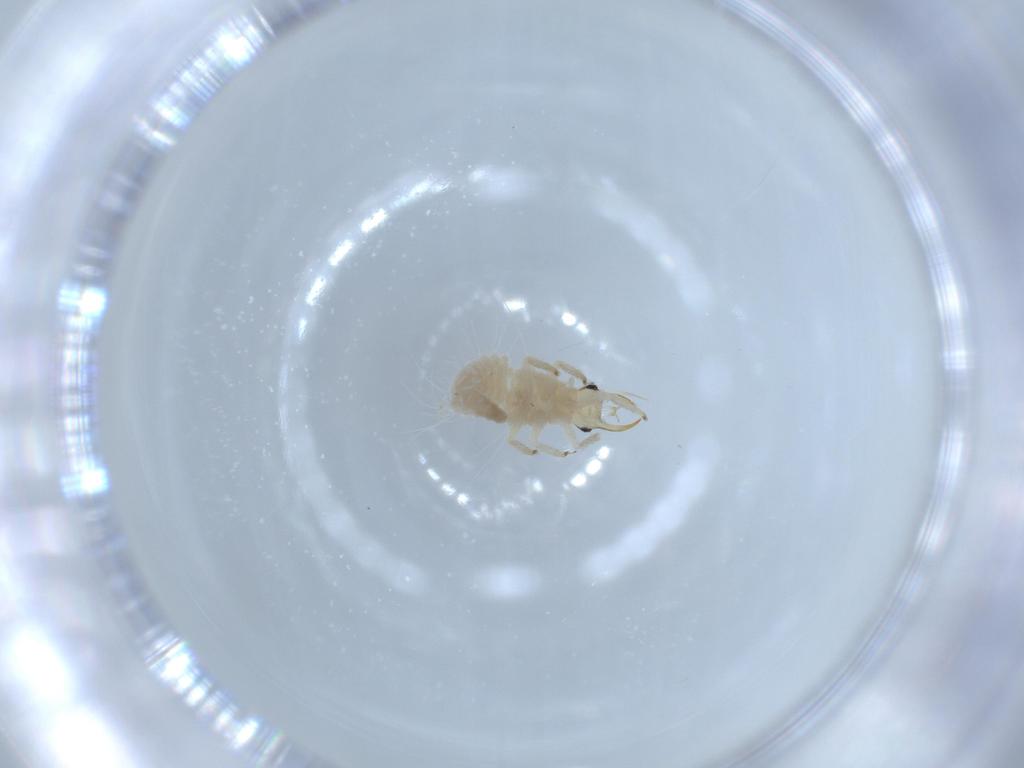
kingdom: Animalia
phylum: Arthropoda
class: Insecta
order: Neuroptera
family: Chrysopidae
